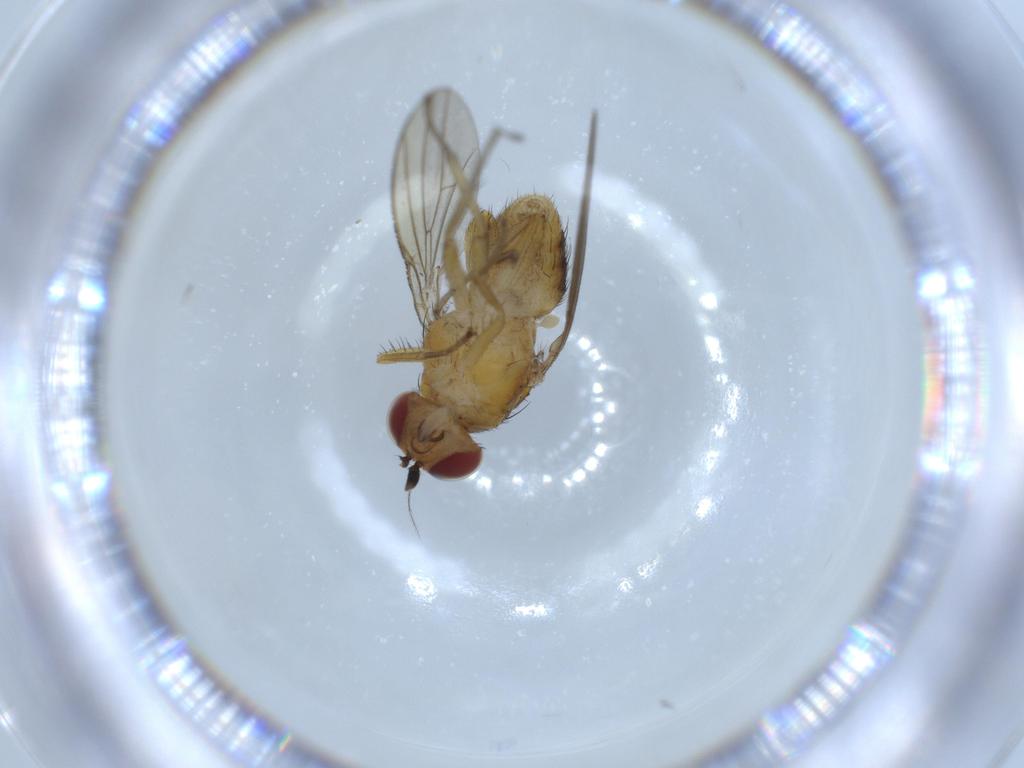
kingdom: Animalia
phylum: Arthropoda
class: Insecta
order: Diptera
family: Lauxaniidae
